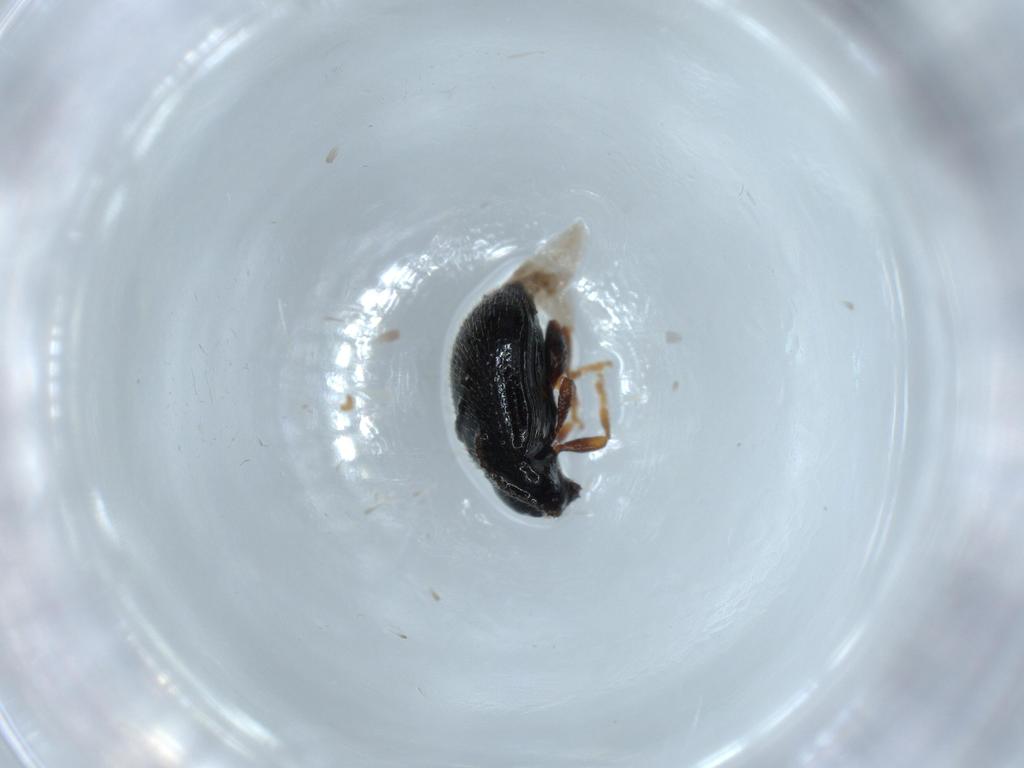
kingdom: Animalia
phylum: Arthropoda
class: Insecta
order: Coleoptera
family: Chrysomelidae
